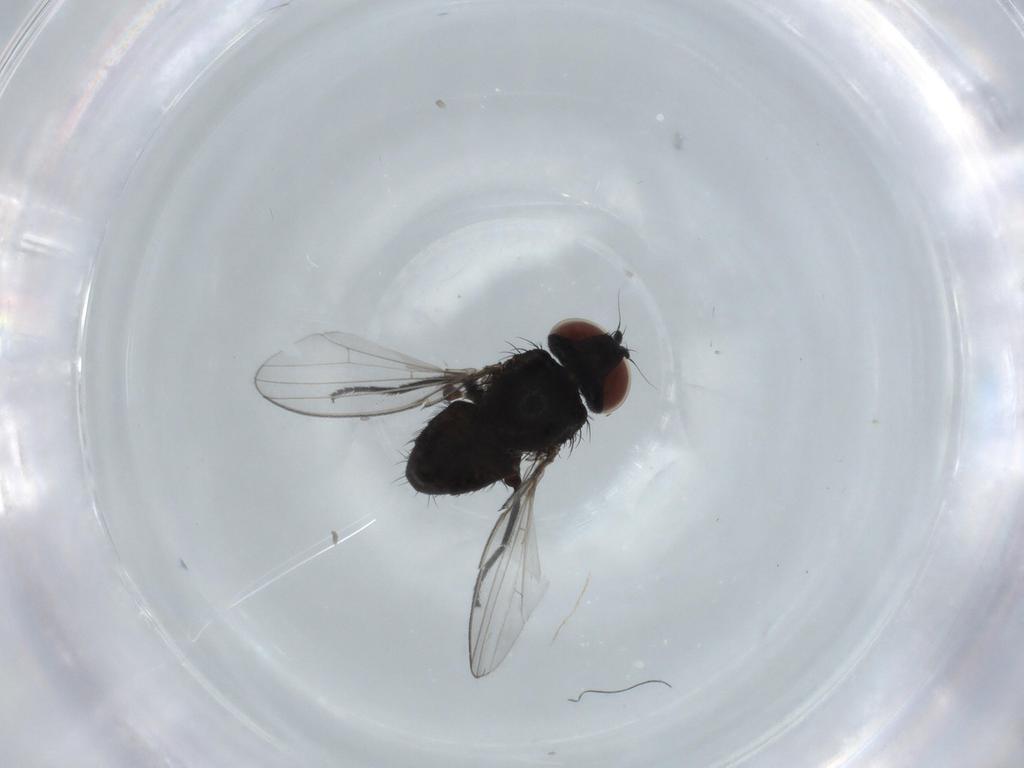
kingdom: Animalia
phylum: Arthropoda
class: Insecta
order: Diptera
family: Milichiidae
